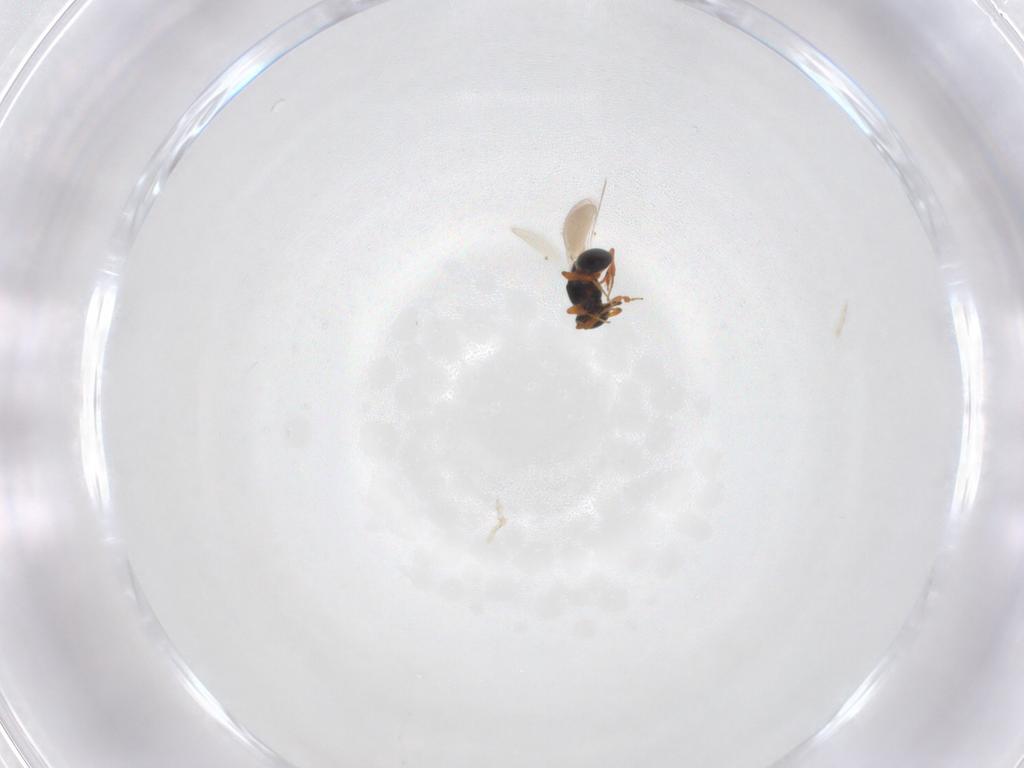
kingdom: Animalia
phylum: Arthropoda
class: Insecta
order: Hymenoptera
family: Platygastridae
